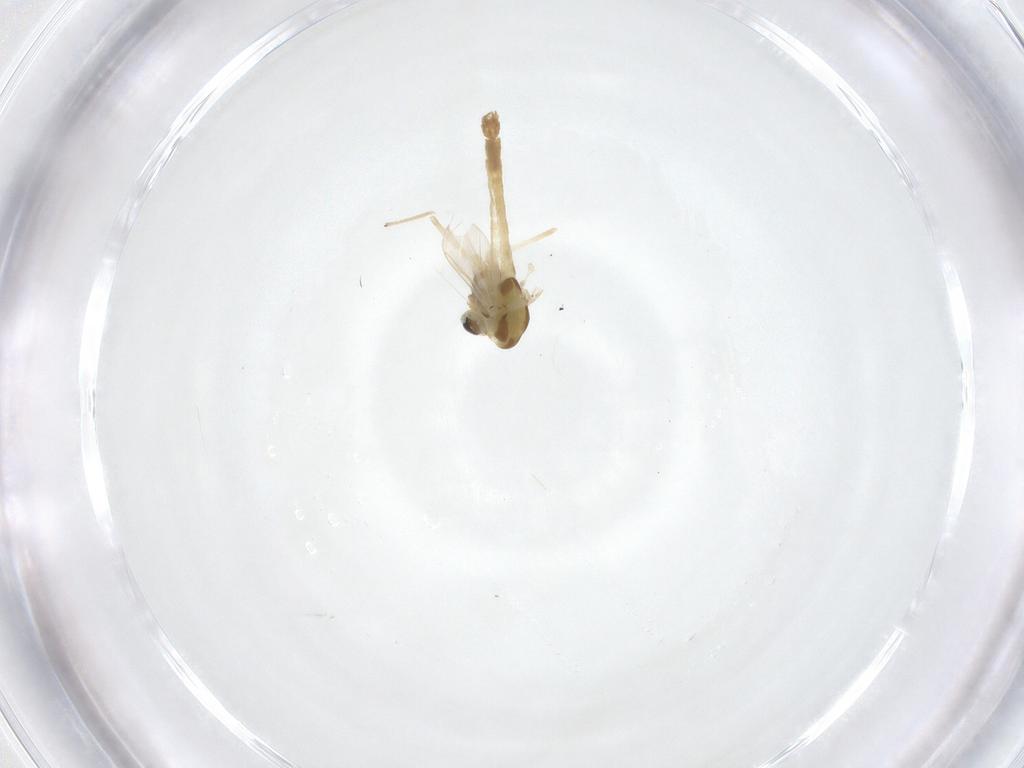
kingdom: Animalia
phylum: Arthropoda
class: Insecta
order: Diptera
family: Chironomidae
